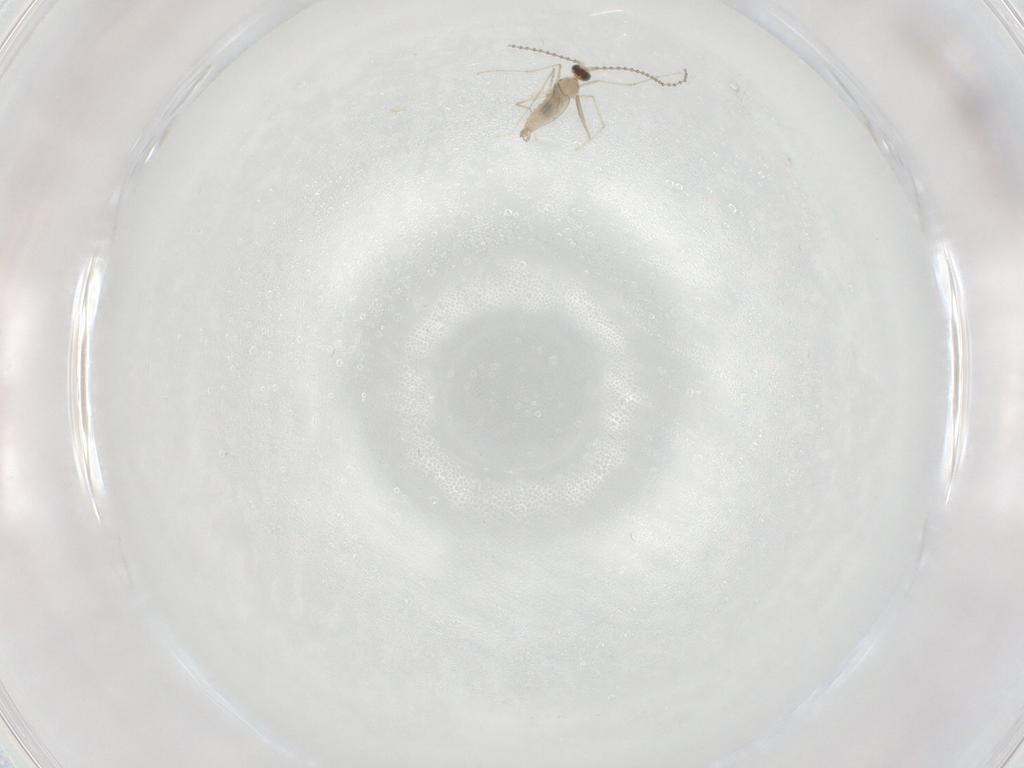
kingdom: Animalia
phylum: Arthropoda
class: Insecta
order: Diptera
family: Cecidomyiidae
